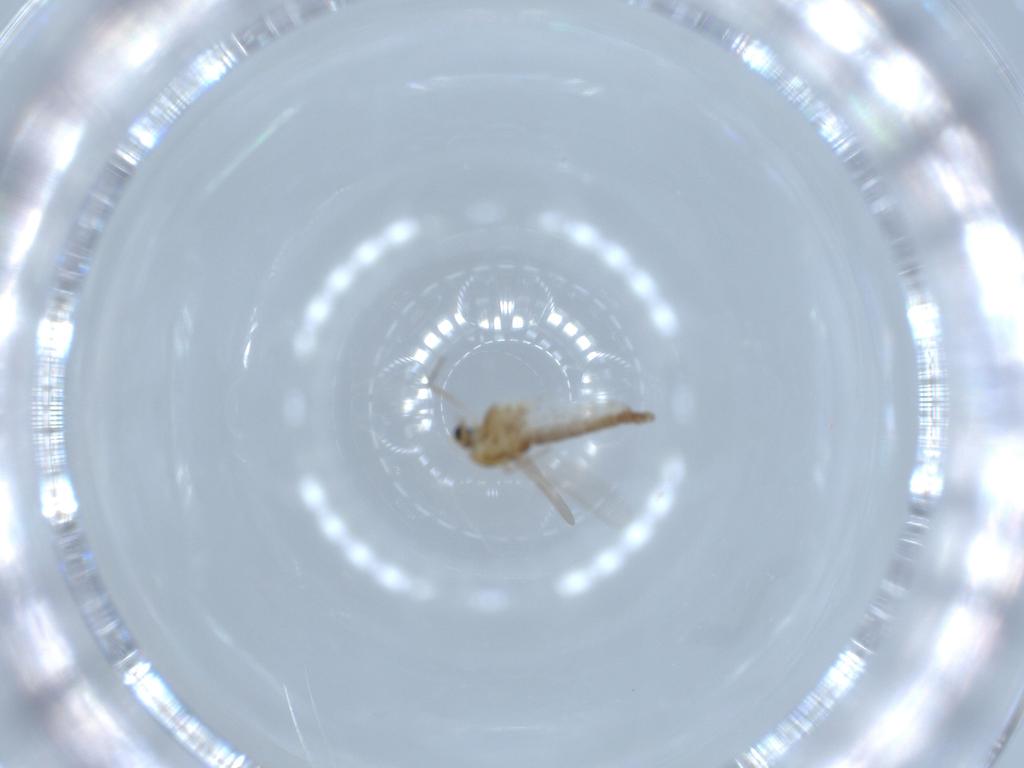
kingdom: Animalia
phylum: Arthropoda
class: Insecta
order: Diptera
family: Chironomidae
